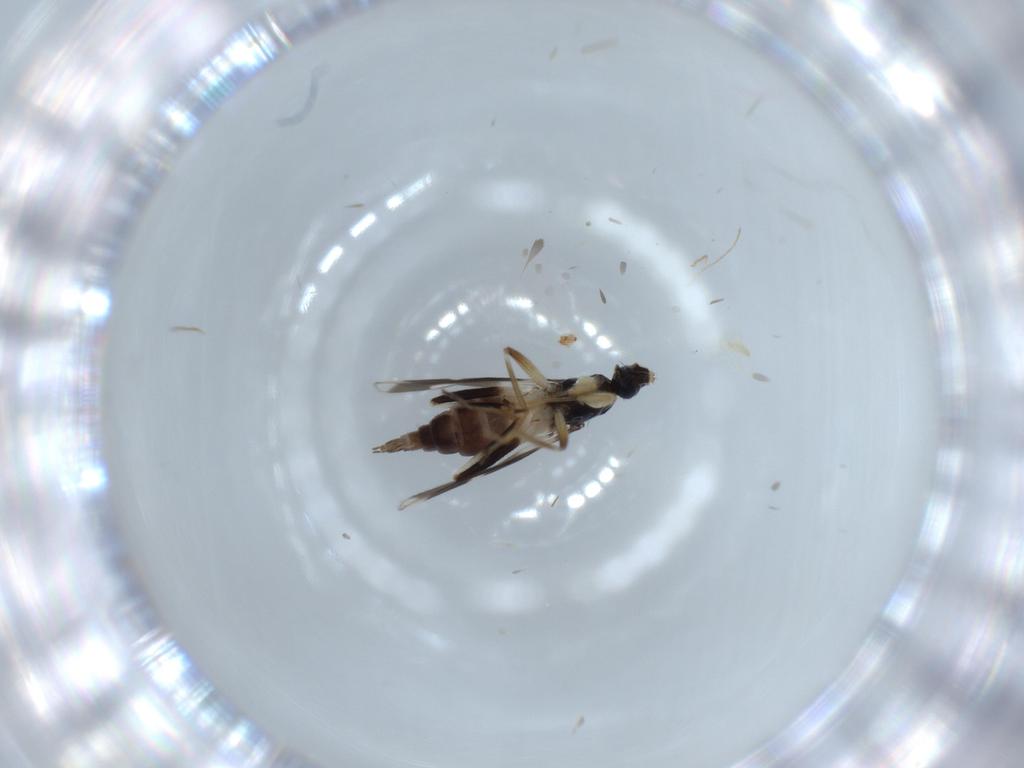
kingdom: Animalia
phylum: Arthropoda
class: Insecta
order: Diptera
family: Hybotidae
